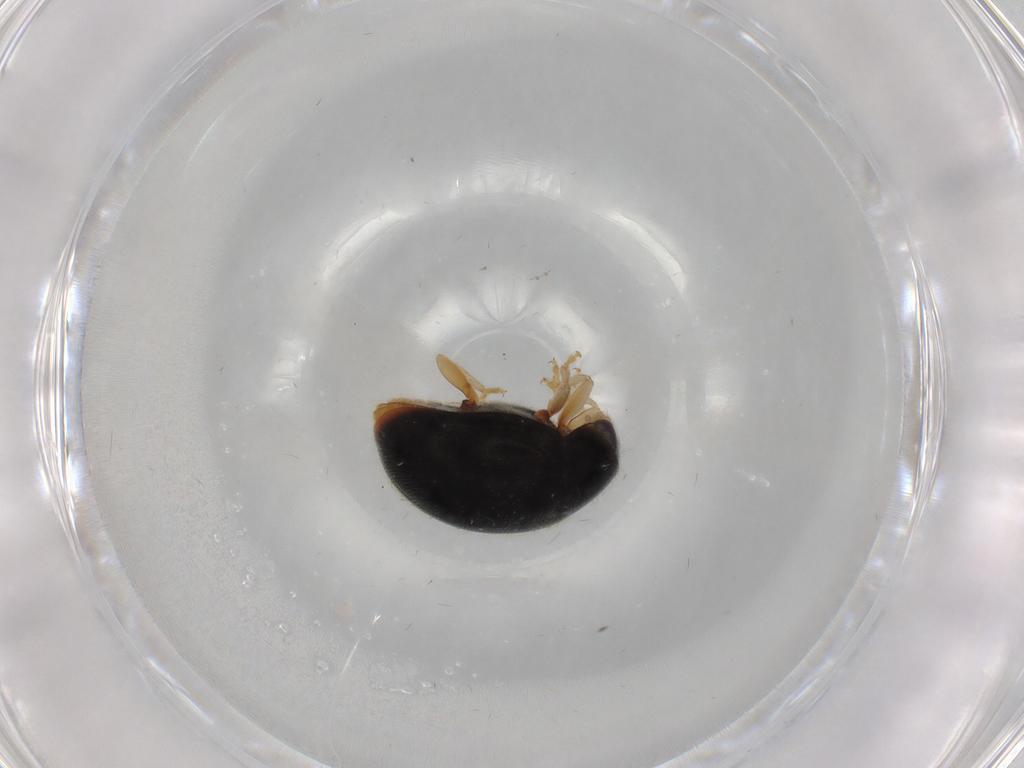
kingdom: Animalia
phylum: Arthropoda
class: Insecta
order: Coleoptera
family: Coccinellidae
